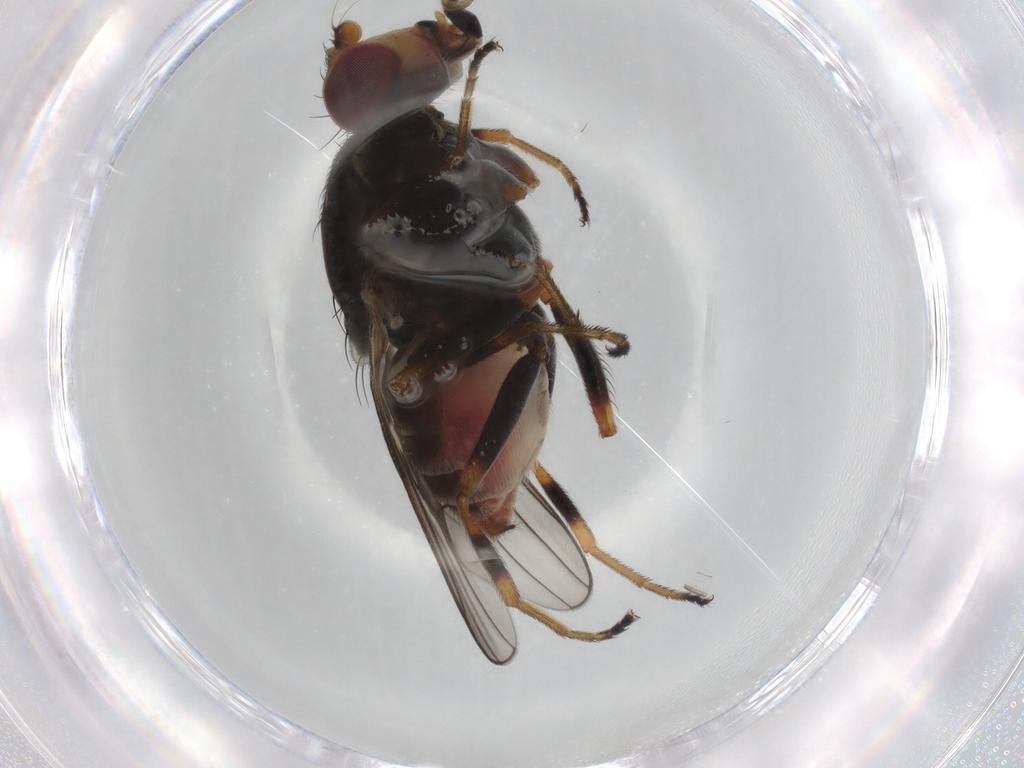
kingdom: Animalia
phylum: Arthropoda
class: Insecta
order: Diptera
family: Chloropidae
